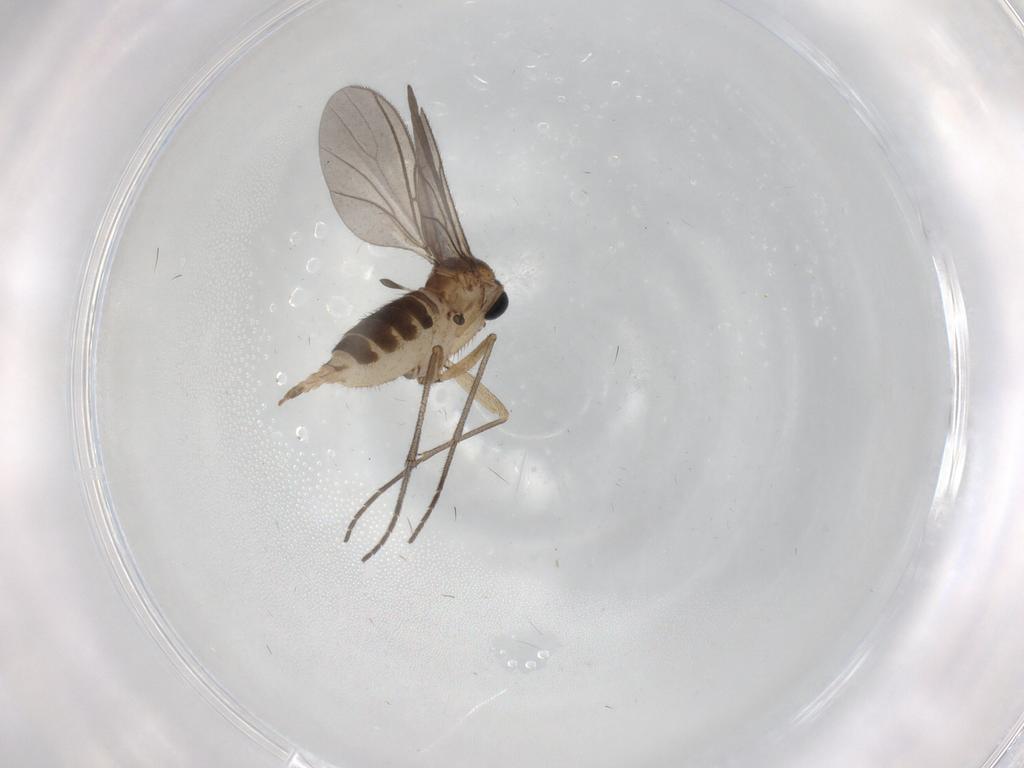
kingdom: Animalia
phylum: Arthropoda
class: Insecta
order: Diptera
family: Sciaridae
